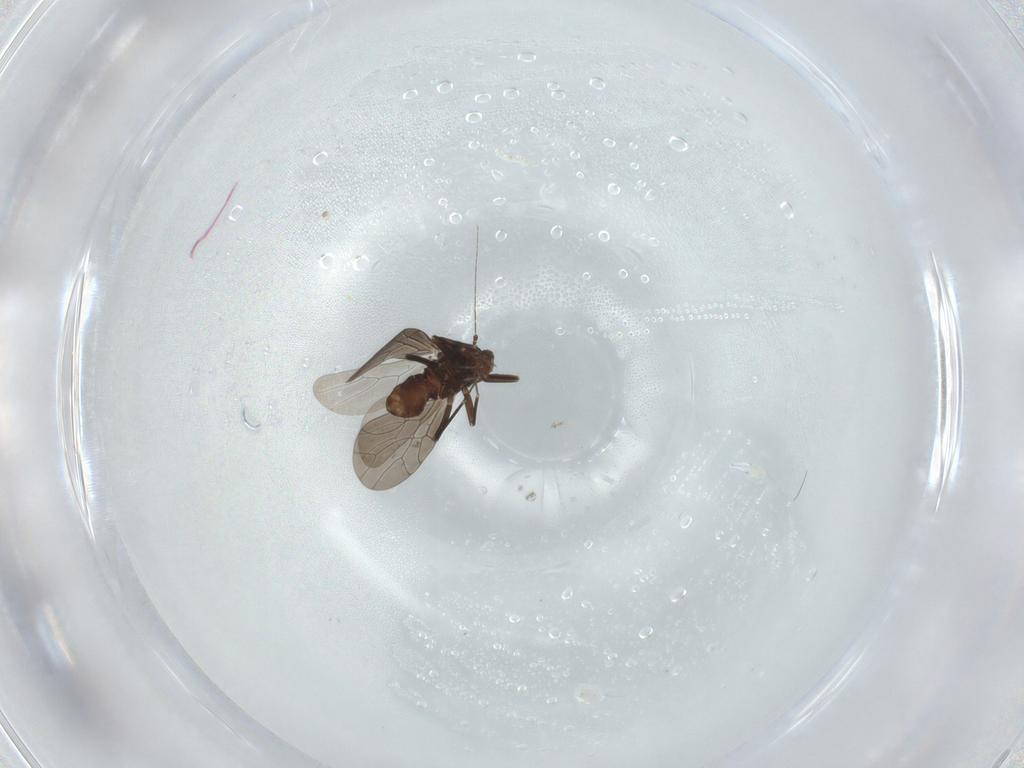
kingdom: Animalia
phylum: Arthropoda
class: Insecta
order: Psocodea
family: Lepidopsocidae
